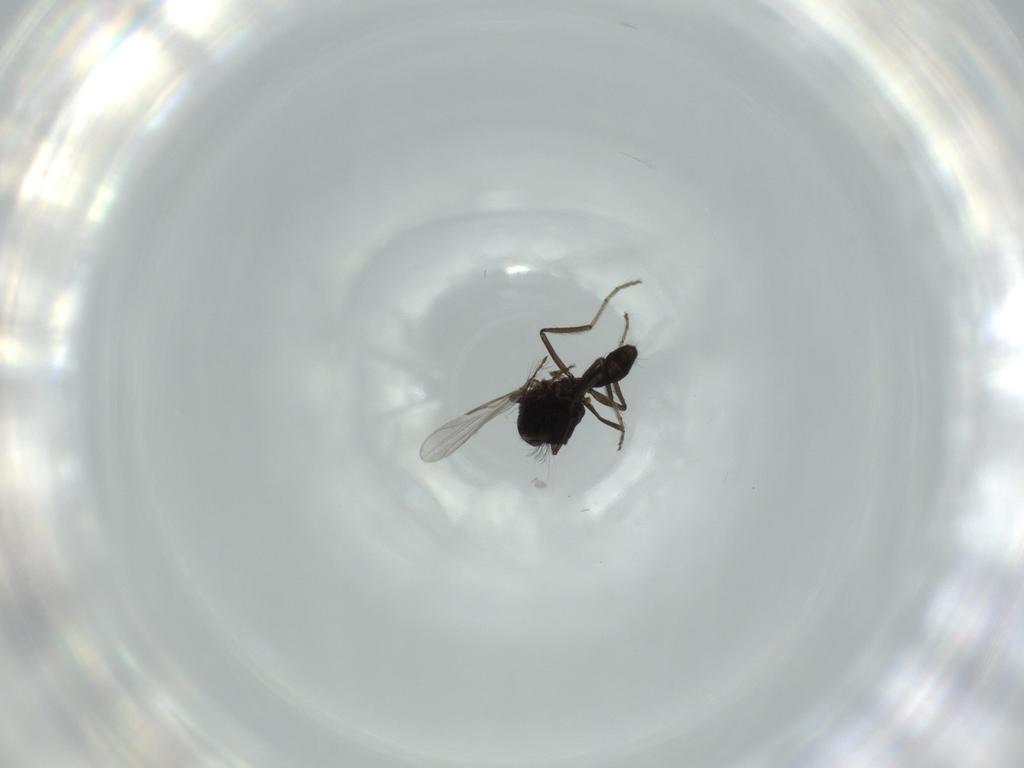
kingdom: Animalia
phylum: Arthropoda
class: Insecta
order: Diptera
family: Ceratopogonidae
